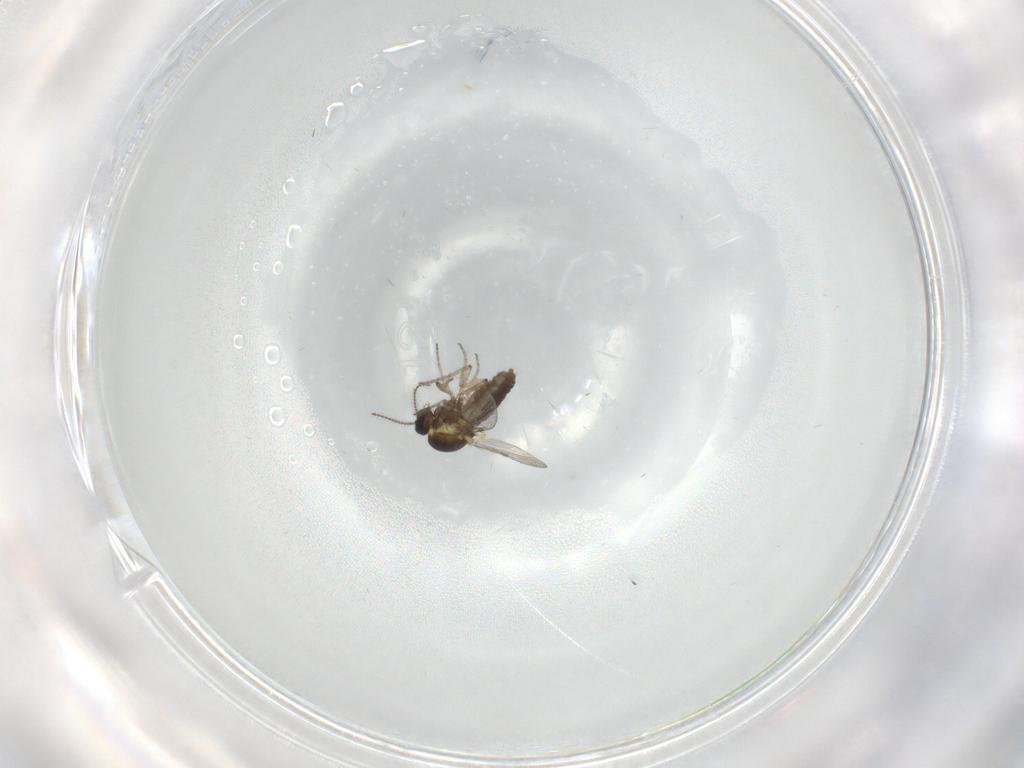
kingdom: Animalia
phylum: Arthropoda
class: Insecta
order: Diptera
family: Ceratopogonidae
